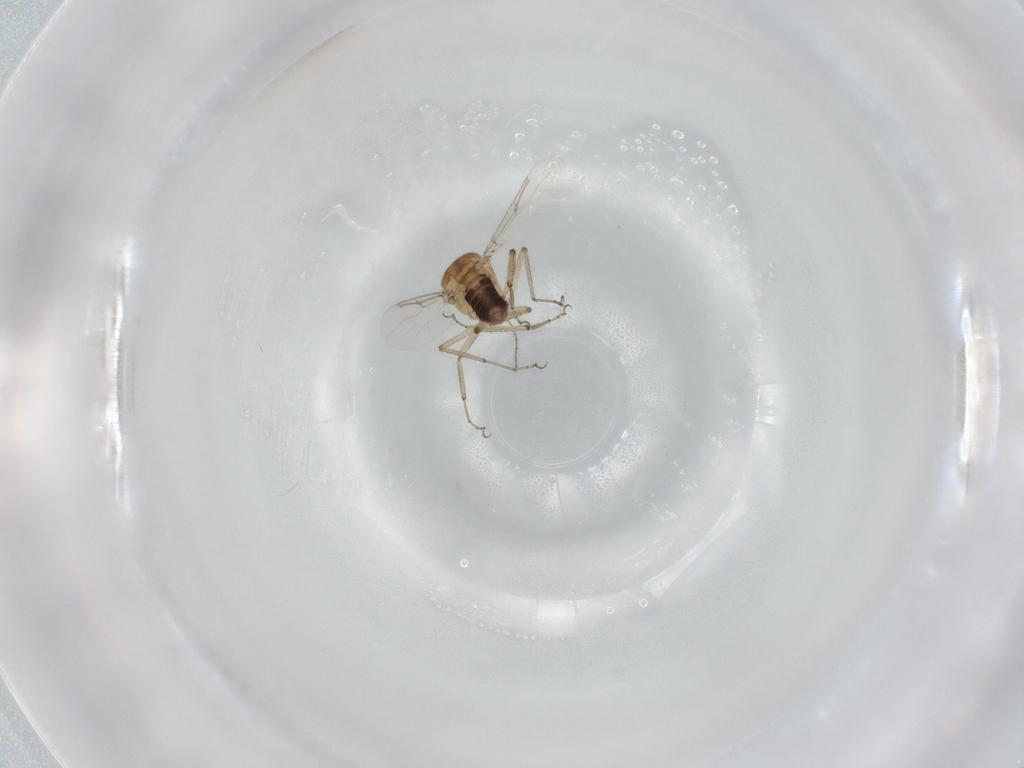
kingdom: Animalia
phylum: Arthropoda
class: Insecta
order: Diptera
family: Ceratopogonidae
